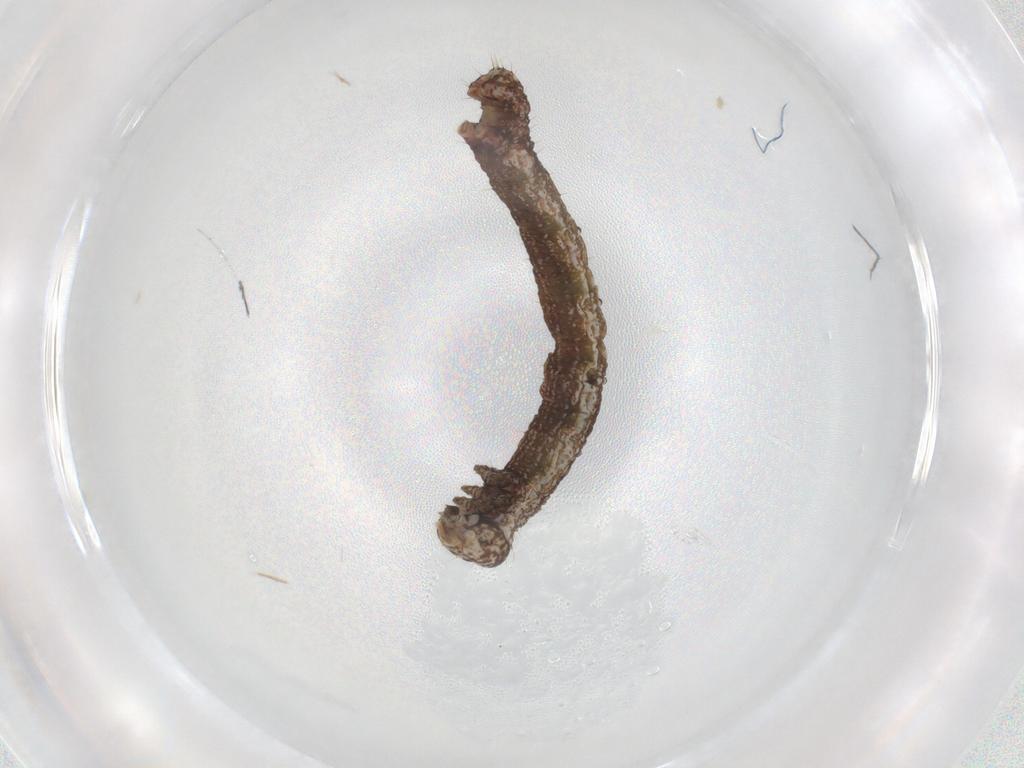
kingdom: Animalia
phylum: Arthropoda
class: Insecta
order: Lepidoptera
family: Geometridae
